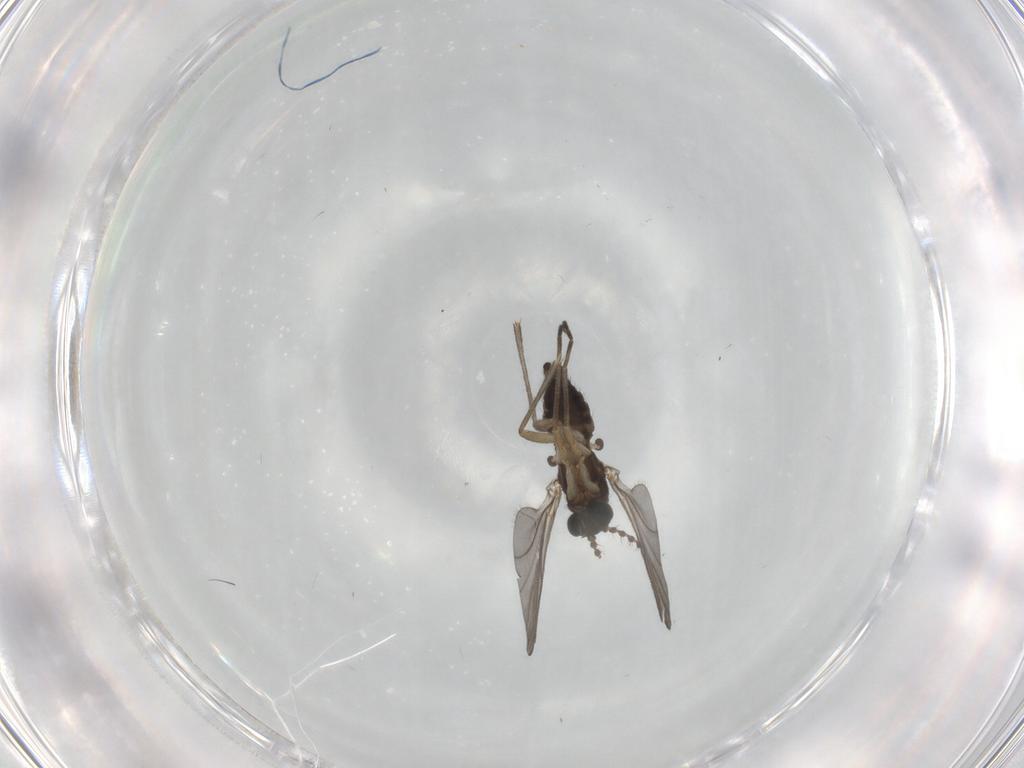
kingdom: Animalia
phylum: Arthropoda
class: Insecta
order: Diptera
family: Sciaridae
